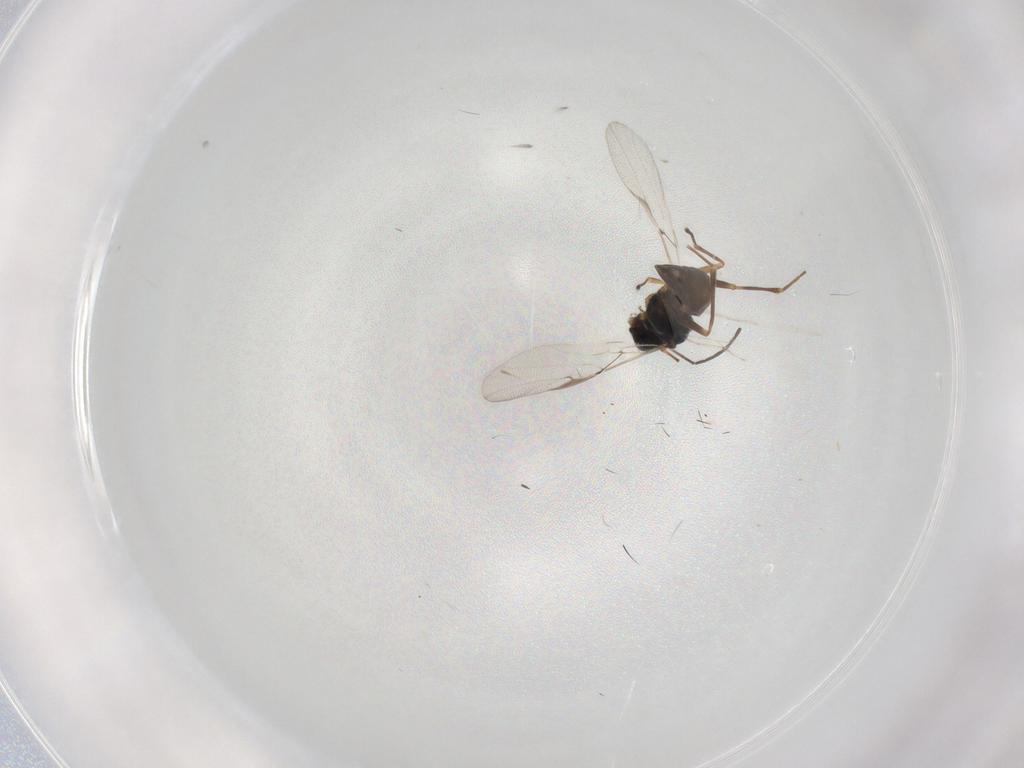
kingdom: Animalia
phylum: Arthropoda
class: Insecta
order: Hymenoptera
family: Braconidae
